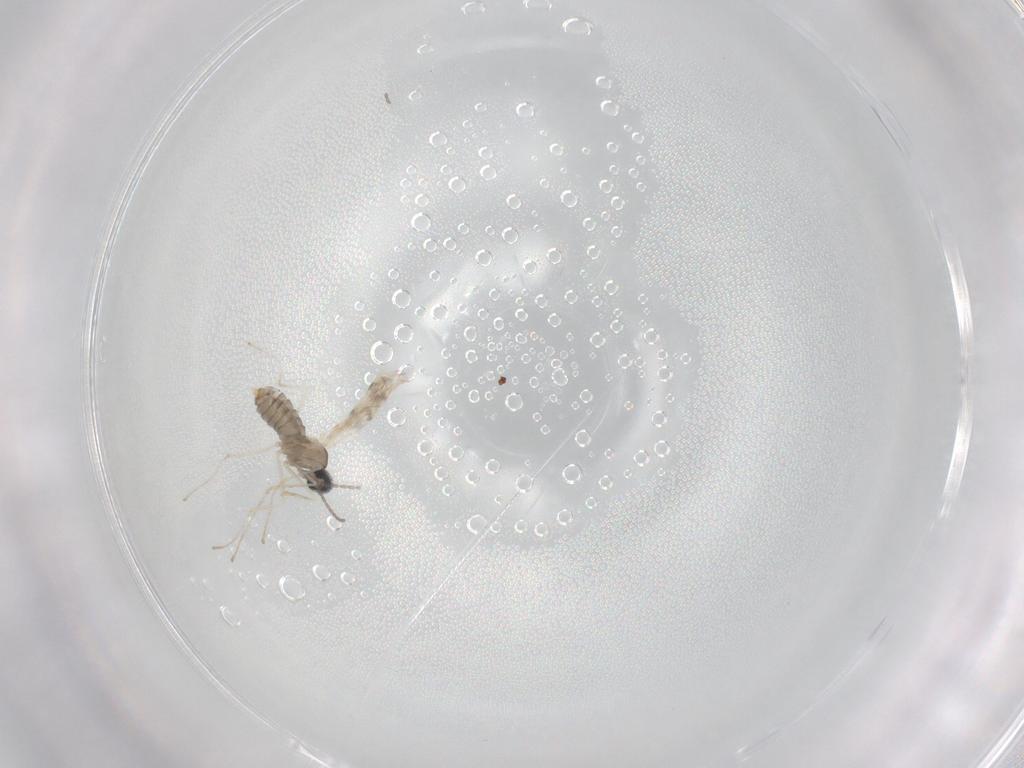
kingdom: Animalia
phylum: Arthropoda
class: Insecta
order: Diptera
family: Cecidomyiidae
